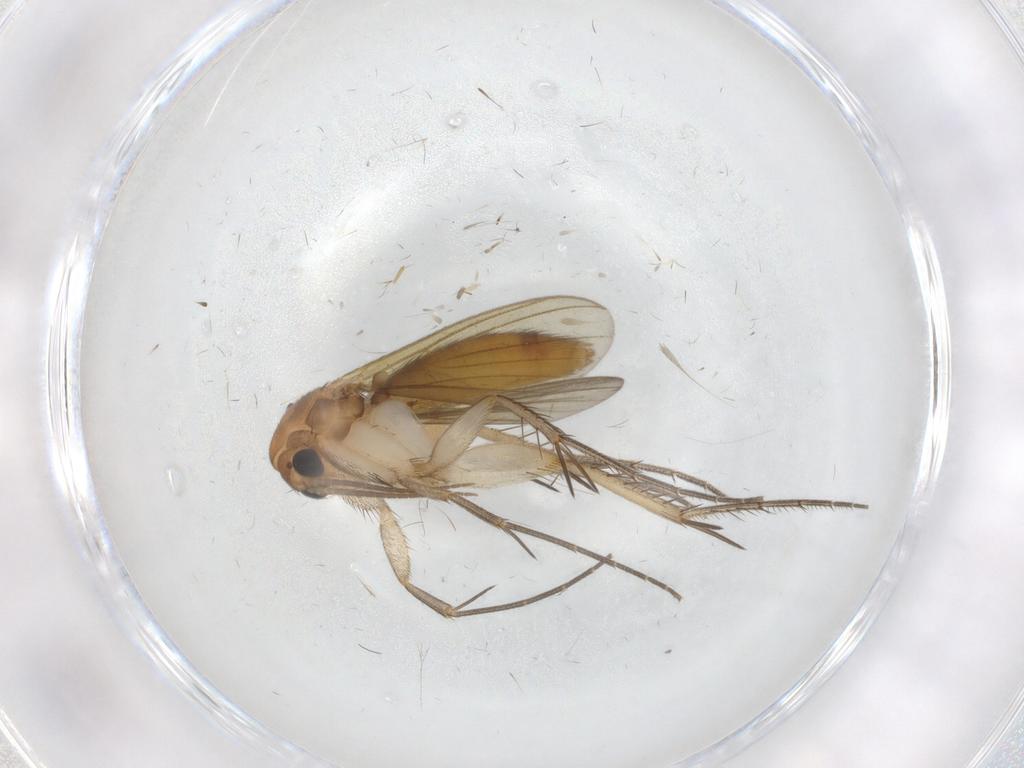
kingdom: Animalia
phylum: Arthropoda
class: Insecta
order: Diptera
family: Mycetophilidae
